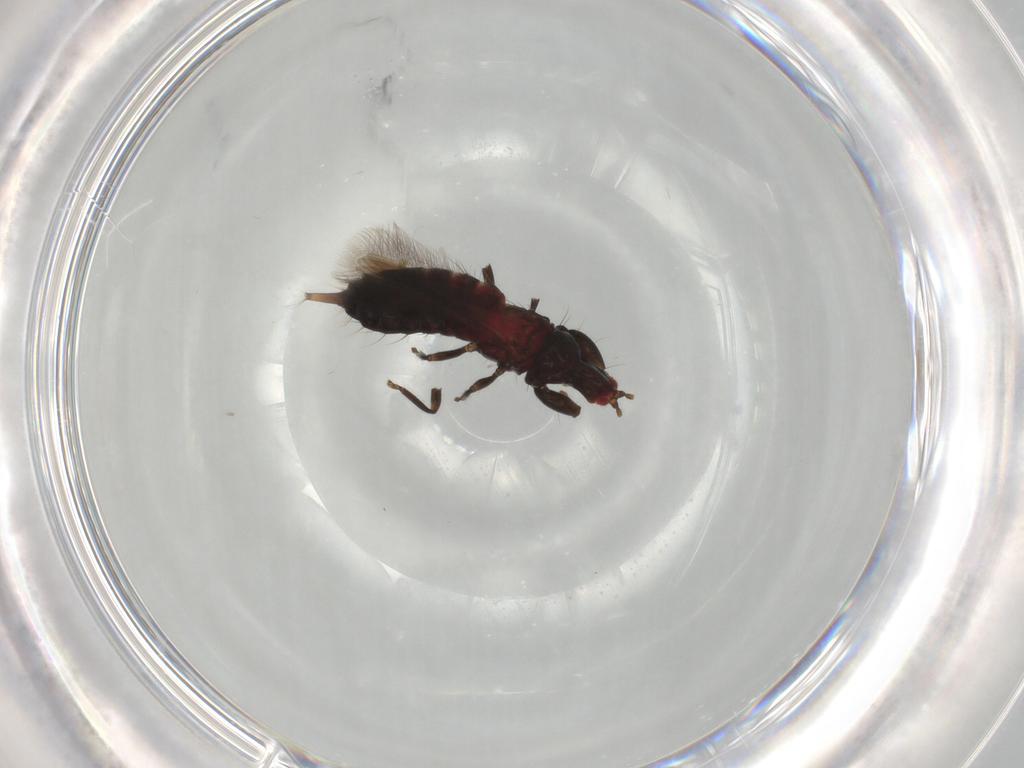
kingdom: Animalia
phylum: Arthropoda
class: Insecta
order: Thysanoptera
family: Phlaeothripidae
